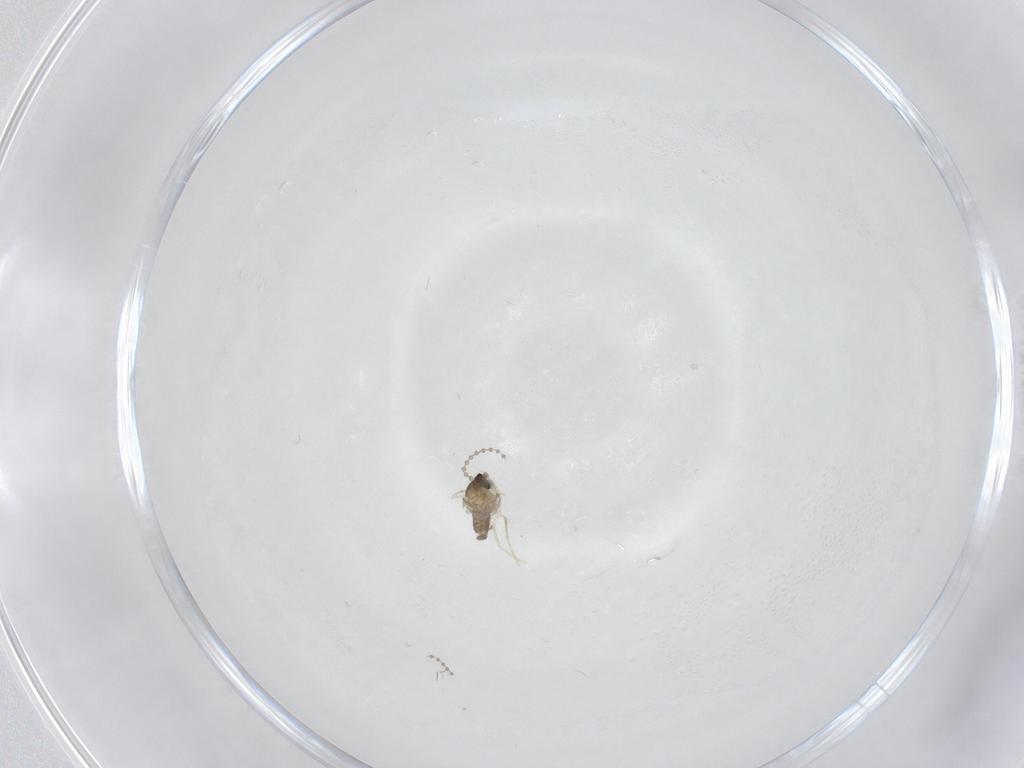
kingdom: Animalia
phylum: Arthropoda
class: Insecta
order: Diptera
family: Cecidomyiidae
